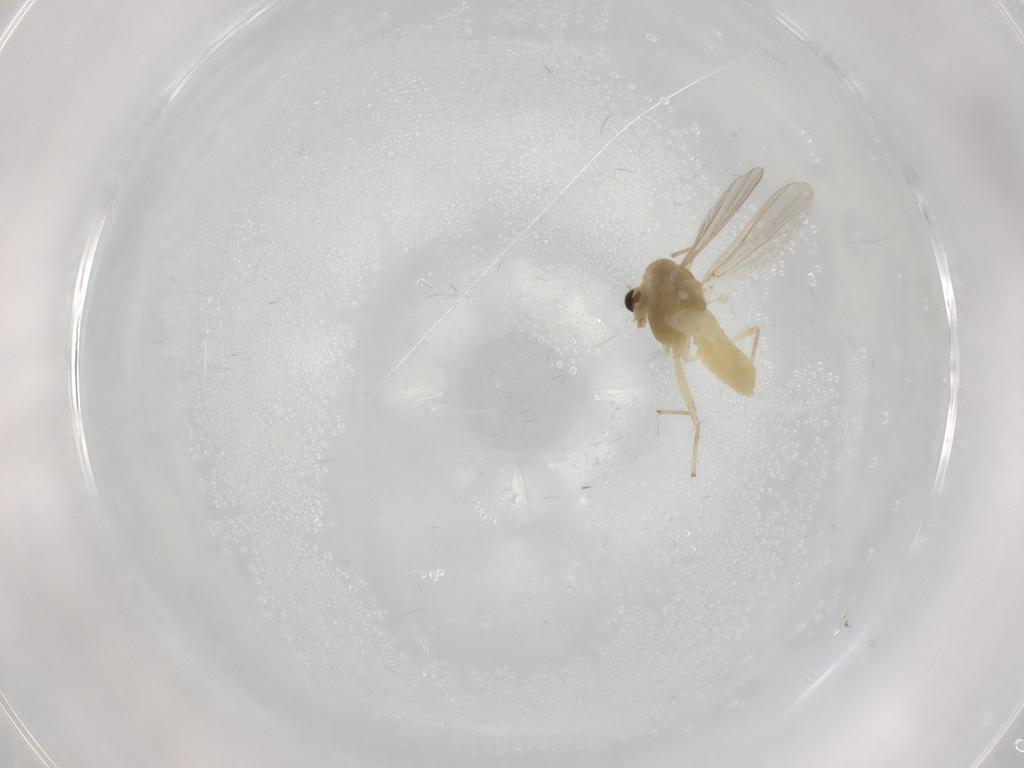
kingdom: Animalia
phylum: Arthropoda
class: Insecta
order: Diptera
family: Chironomidae
